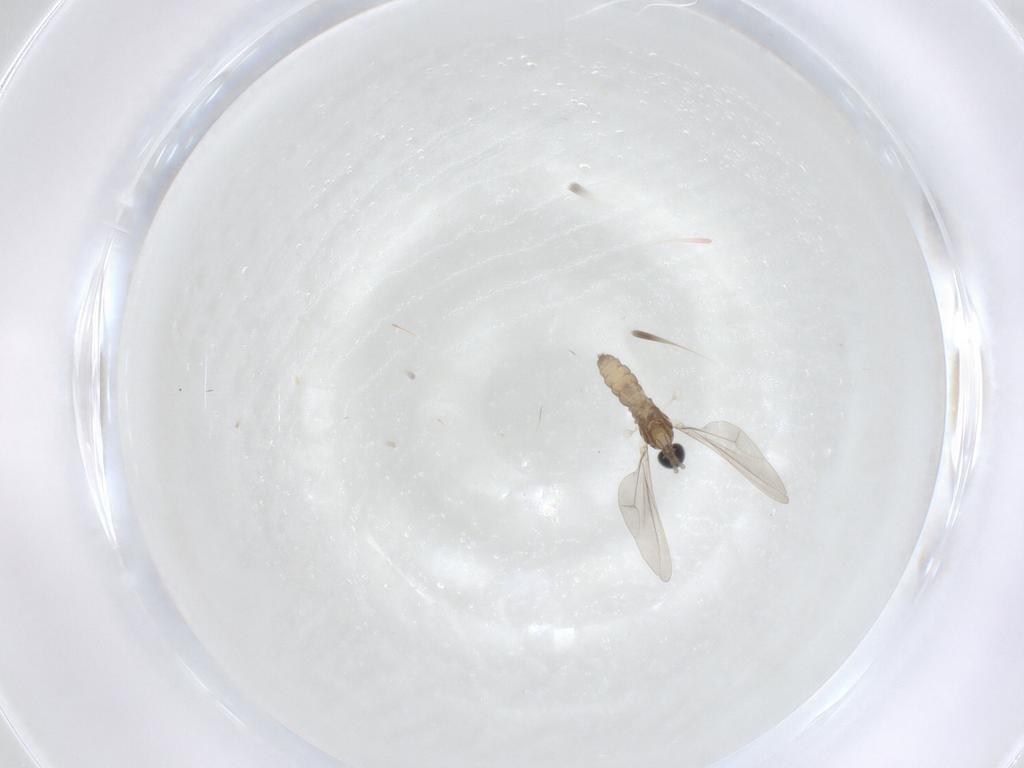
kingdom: Animalia
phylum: Arthropoda
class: Insecta
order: Diptera
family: Cecidomyiidae
